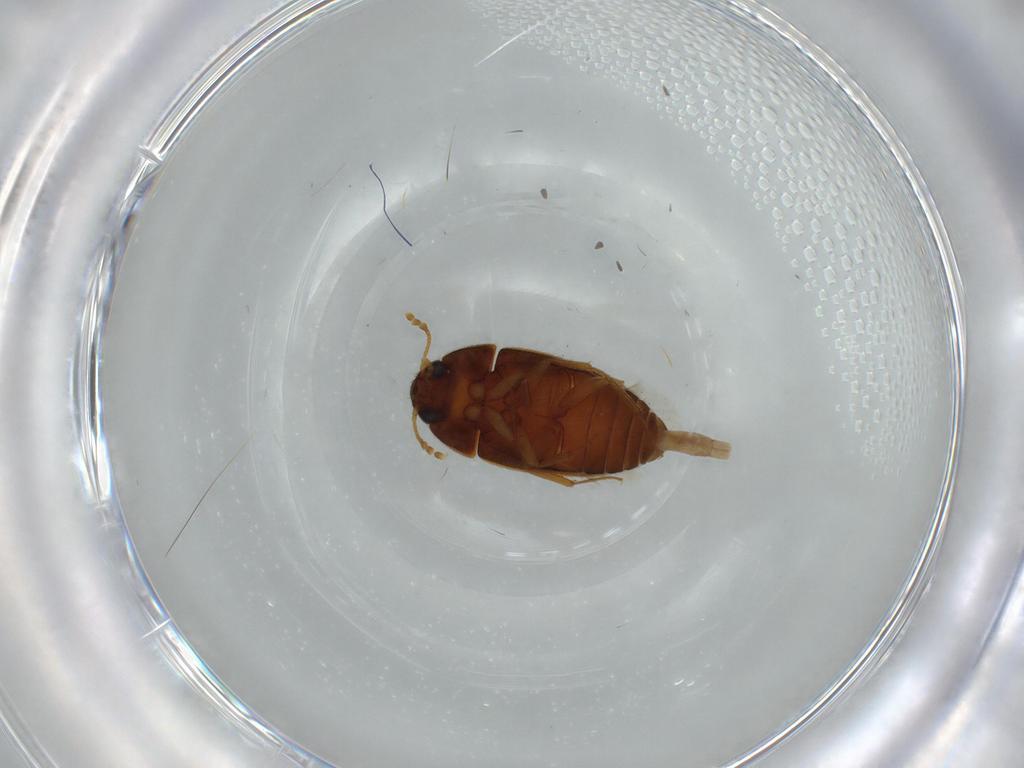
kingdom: Animalia
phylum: Arthropoda
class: Insecta
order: Coleoptera
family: Mycetophagidae
